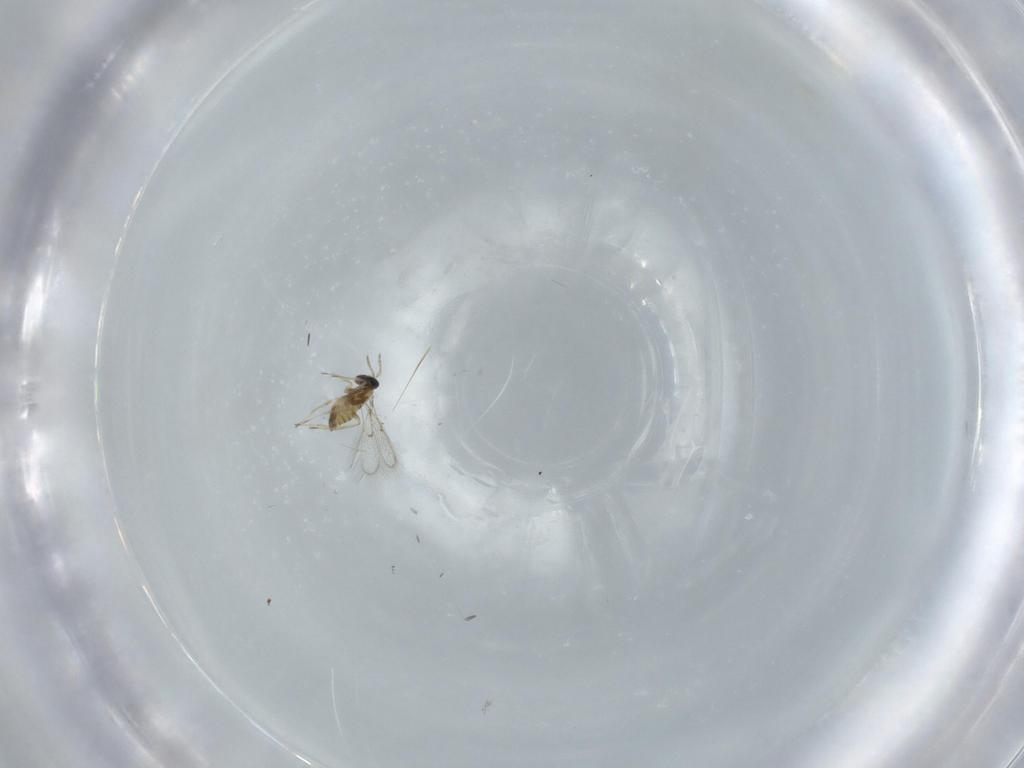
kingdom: Animalia
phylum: Arthropoda
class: Insecta
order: Hymenoptera
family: Trichogrammatidae
